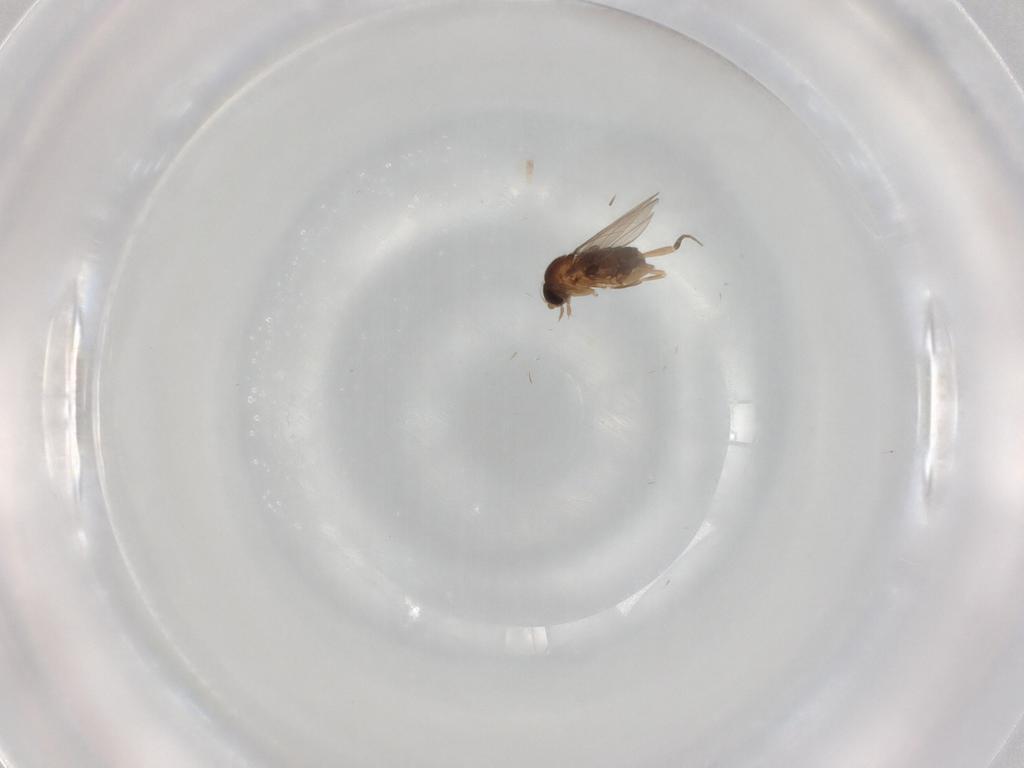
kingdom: Animalia
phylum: Arthropoda
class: Insecta
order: Diptera
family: Phoridae
